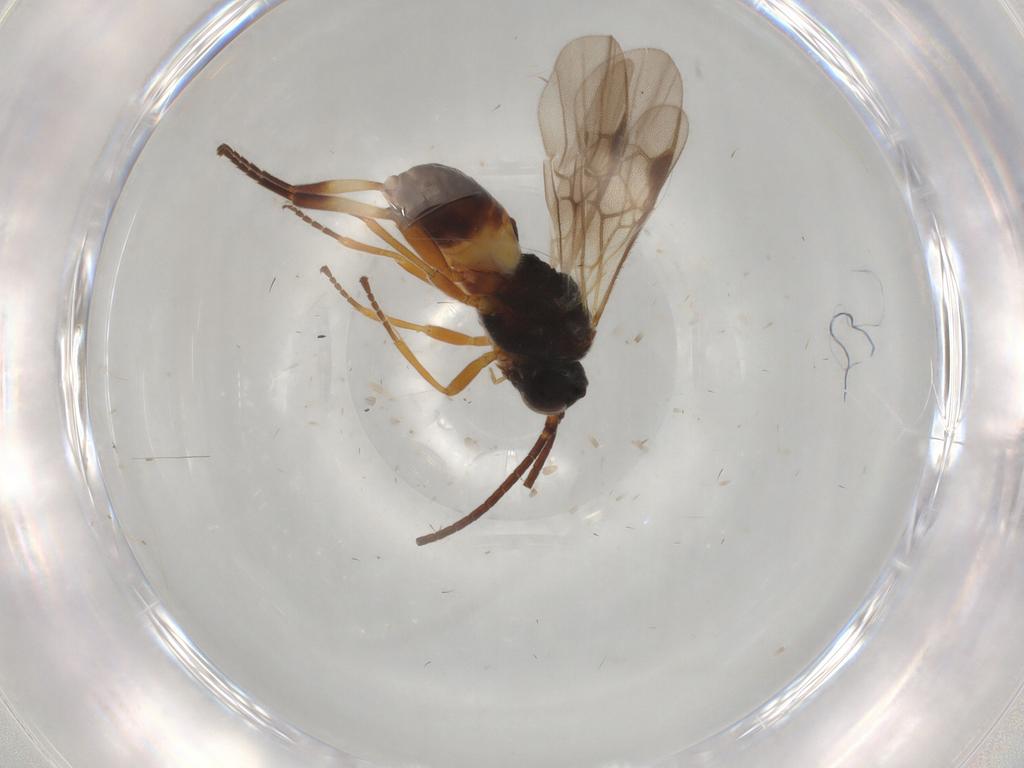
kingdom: Animalia
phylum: Arthropoda
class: Insecta
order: Hymenoptera
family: Braconidae
